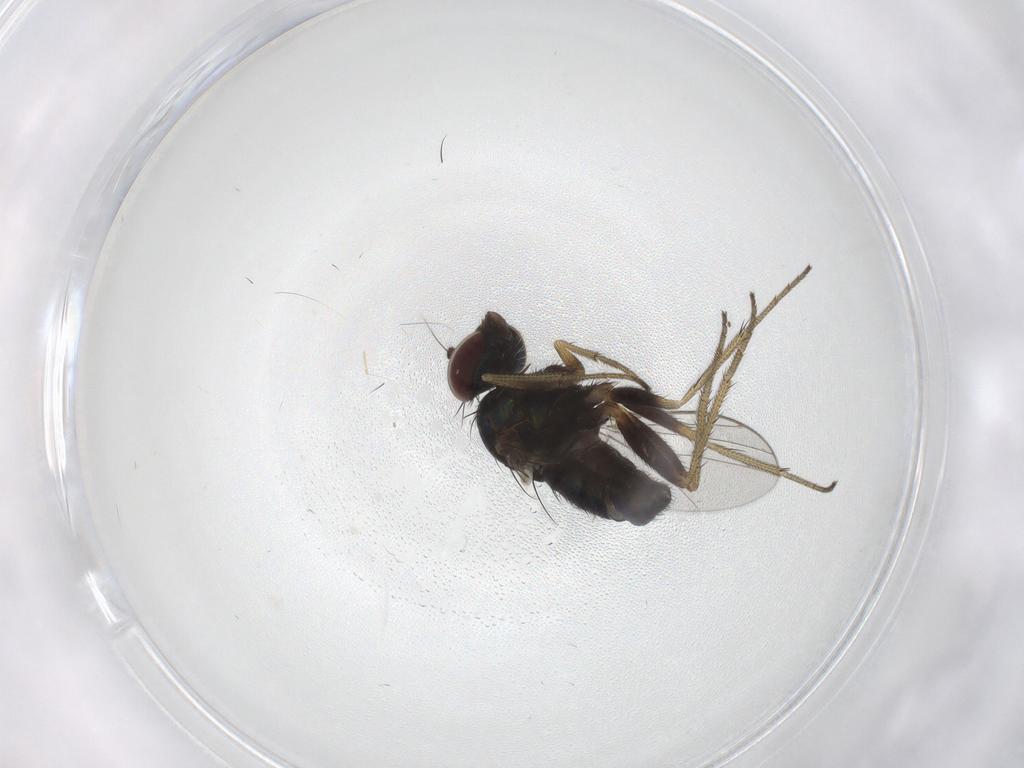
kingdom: Animalia
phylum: Arthropoda
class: Insecta
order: Diptera
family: Dolichopodidae
